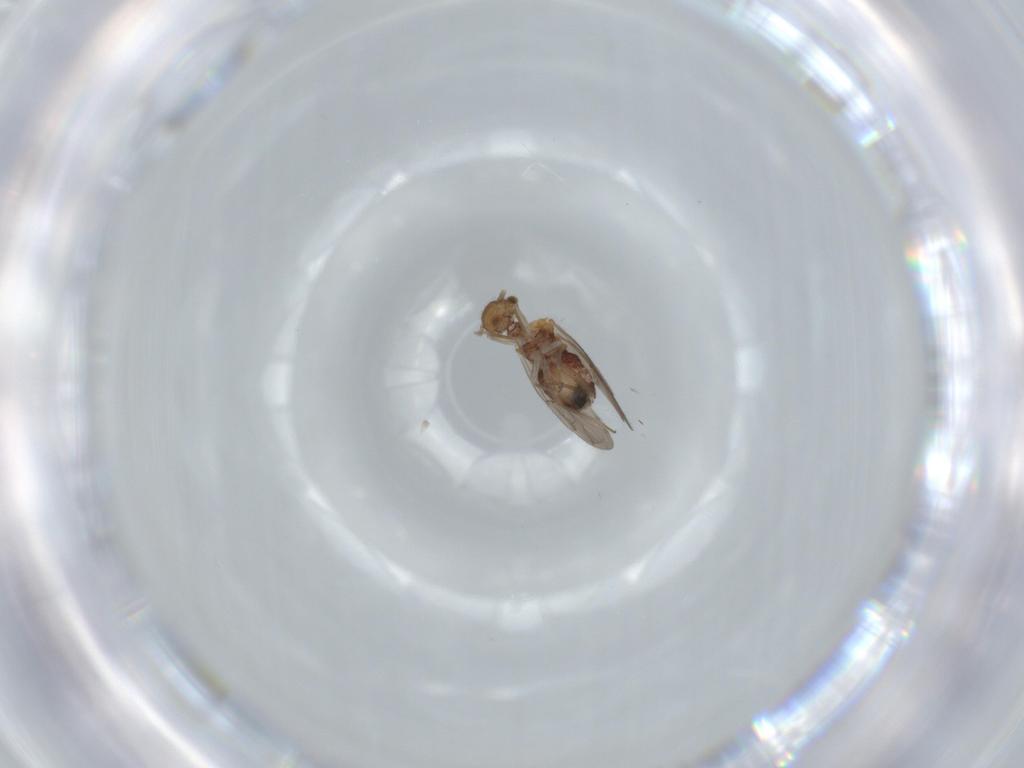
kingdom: Animalia
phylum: Arthropoda
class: Insecta
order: Psocodea
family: Ectopsocidae
